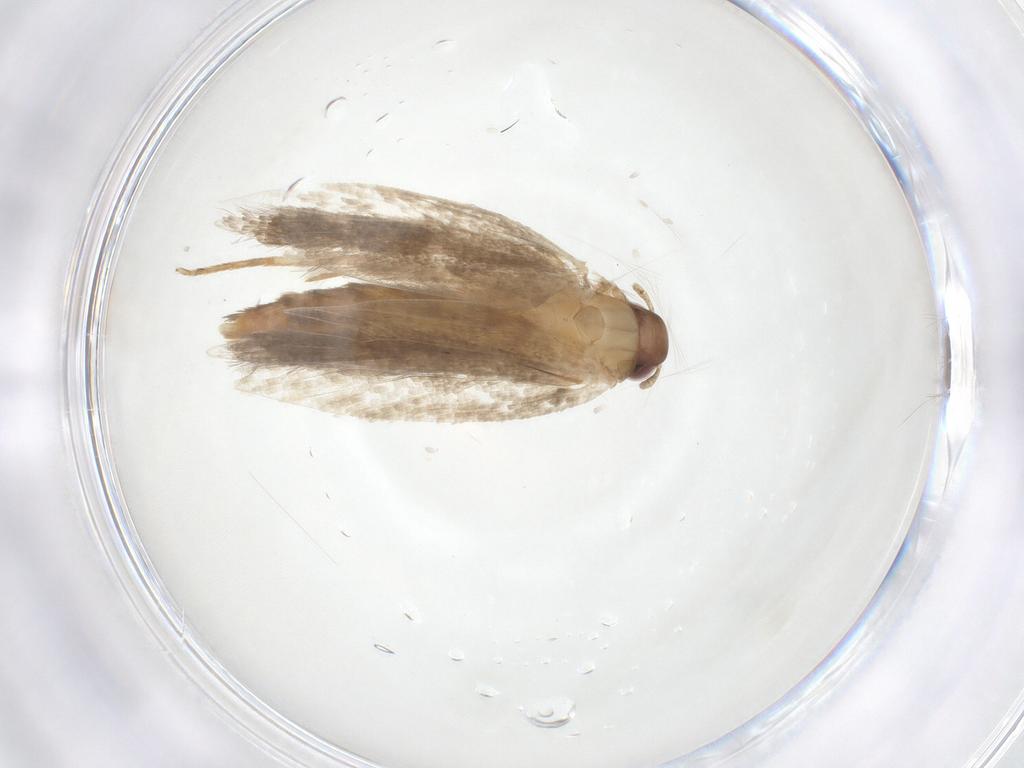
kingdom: Animalia
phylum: Arthropoda
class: Insecta
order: Lepidoptera
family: Gelechiidae
